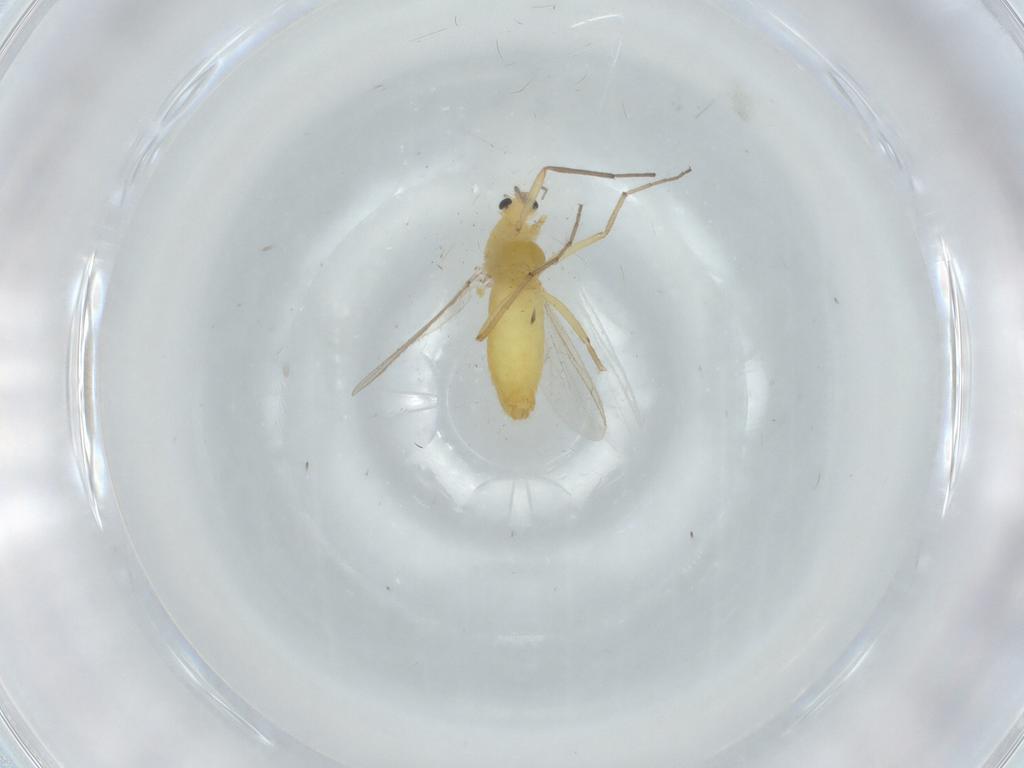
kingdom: Animalia
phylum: Arthropoda
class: Insecta
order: Diptera
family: Chironomidae
